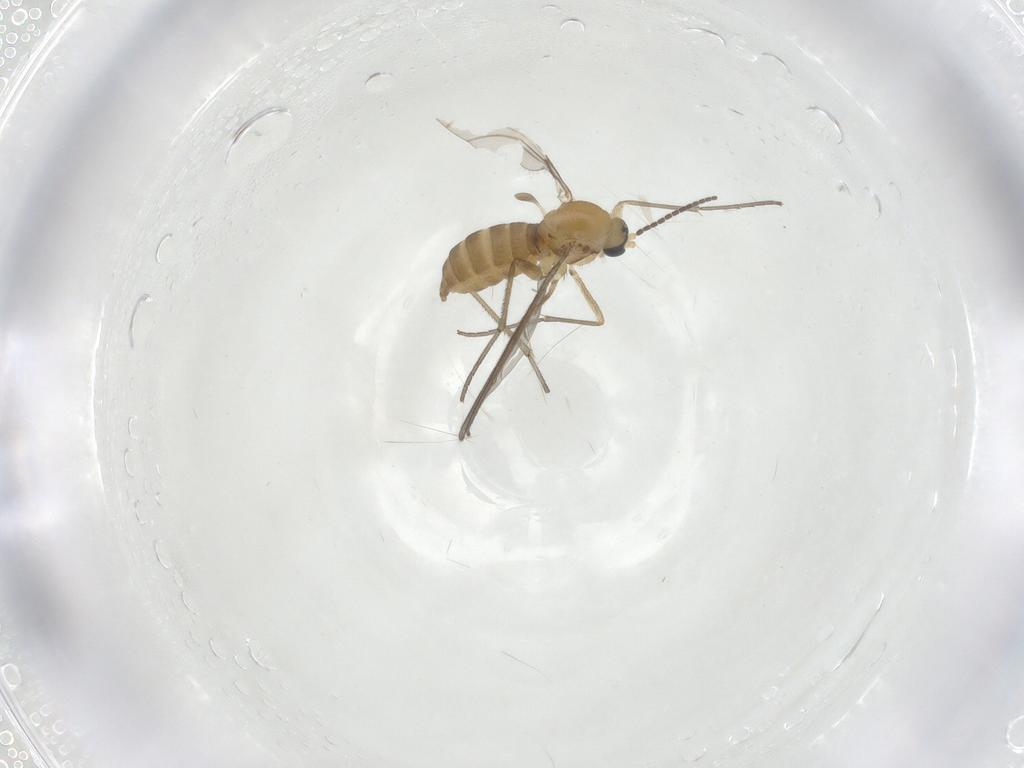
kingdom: Animalia
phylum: Arthropoda
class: Insecta
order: Diptera
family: Sciaridae
